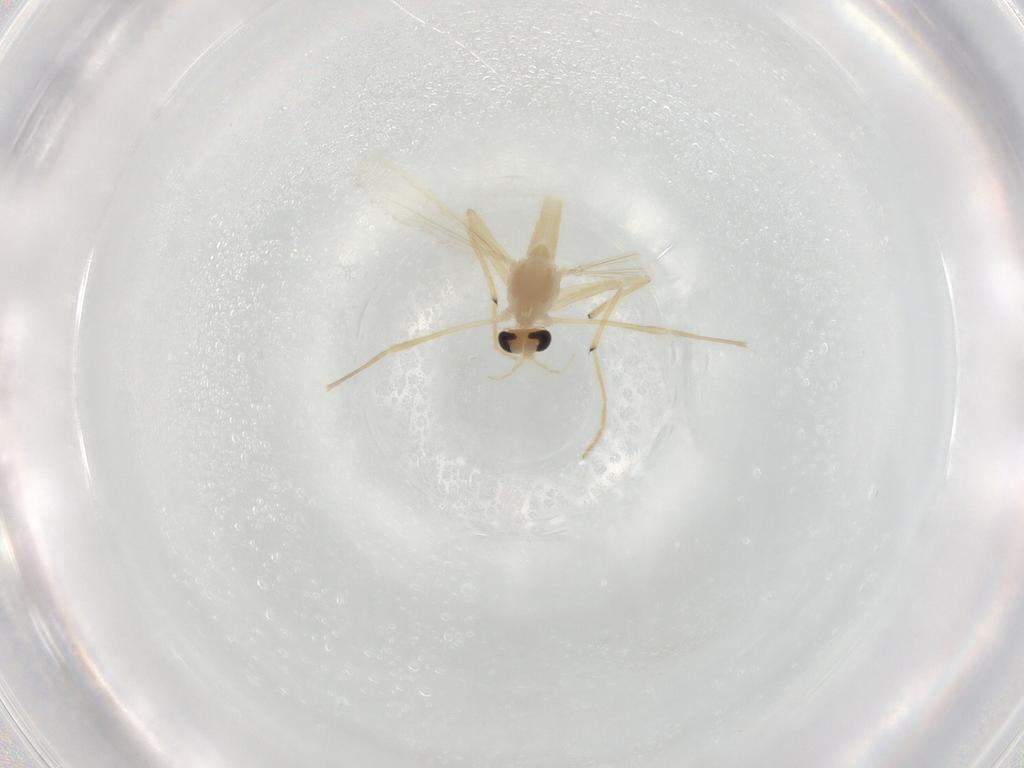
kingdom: Animalia
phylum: Arthropoda
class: Insecta
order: Diptera
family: Chironomidae
